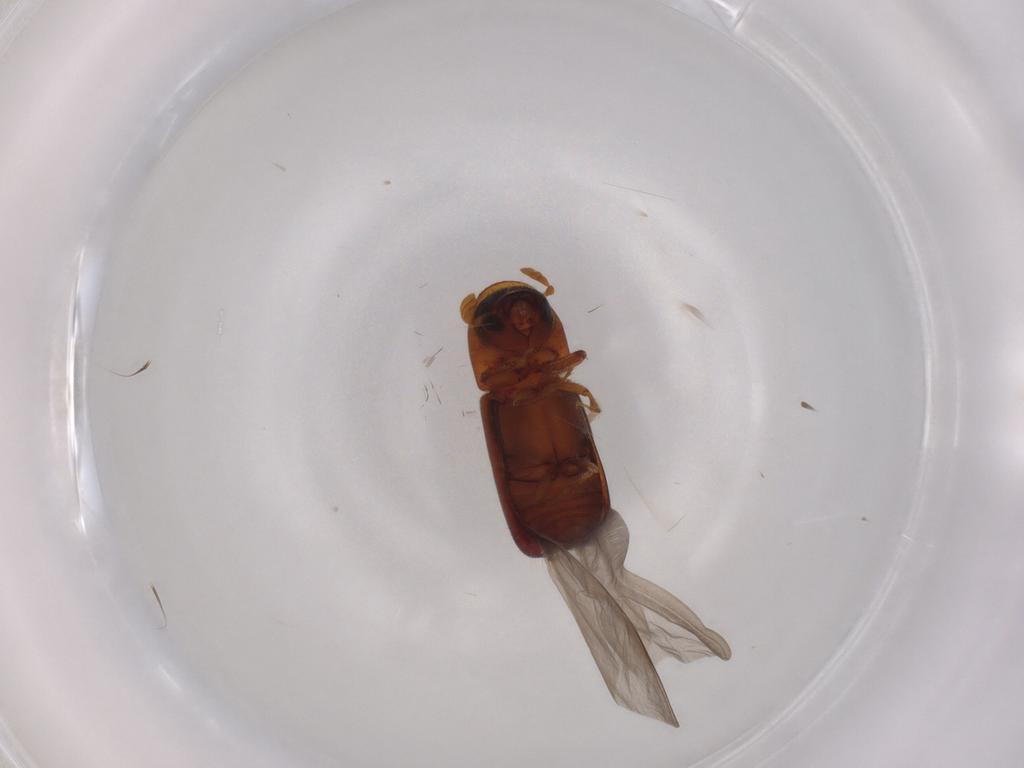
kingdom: Animalia
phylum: Arthropoda
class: Insecta
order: Coleoptera
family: Curculionidae
